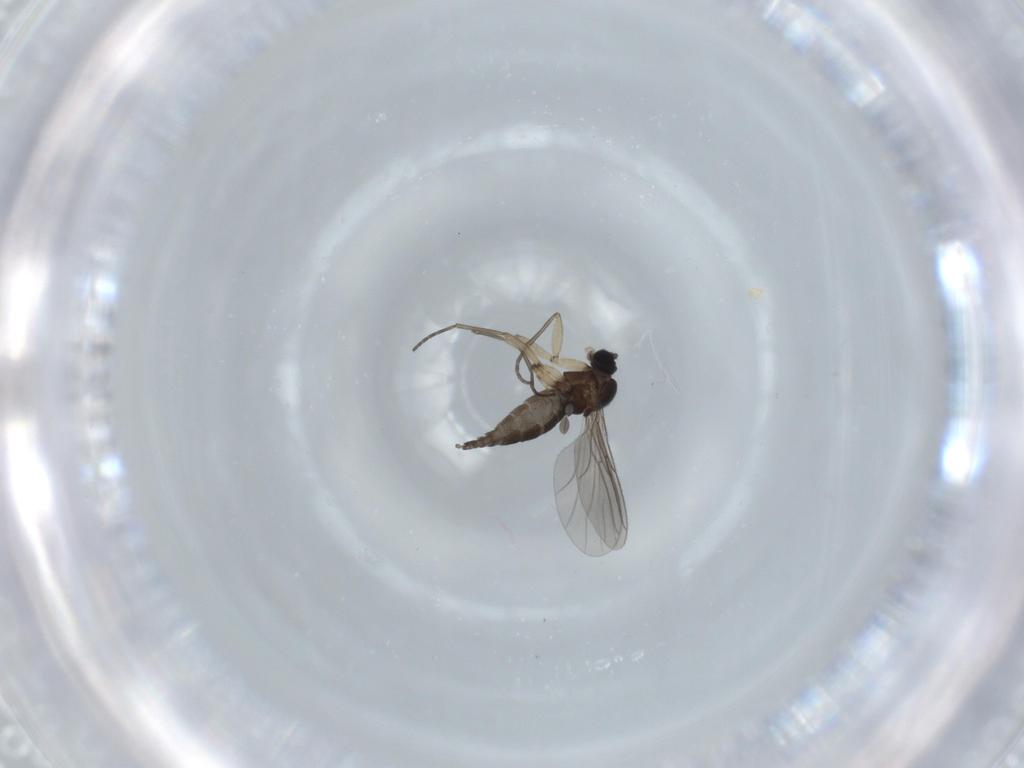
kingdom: Animalia
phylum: Arthropoda
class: Insecta
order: Diptera
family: Sciaridae
